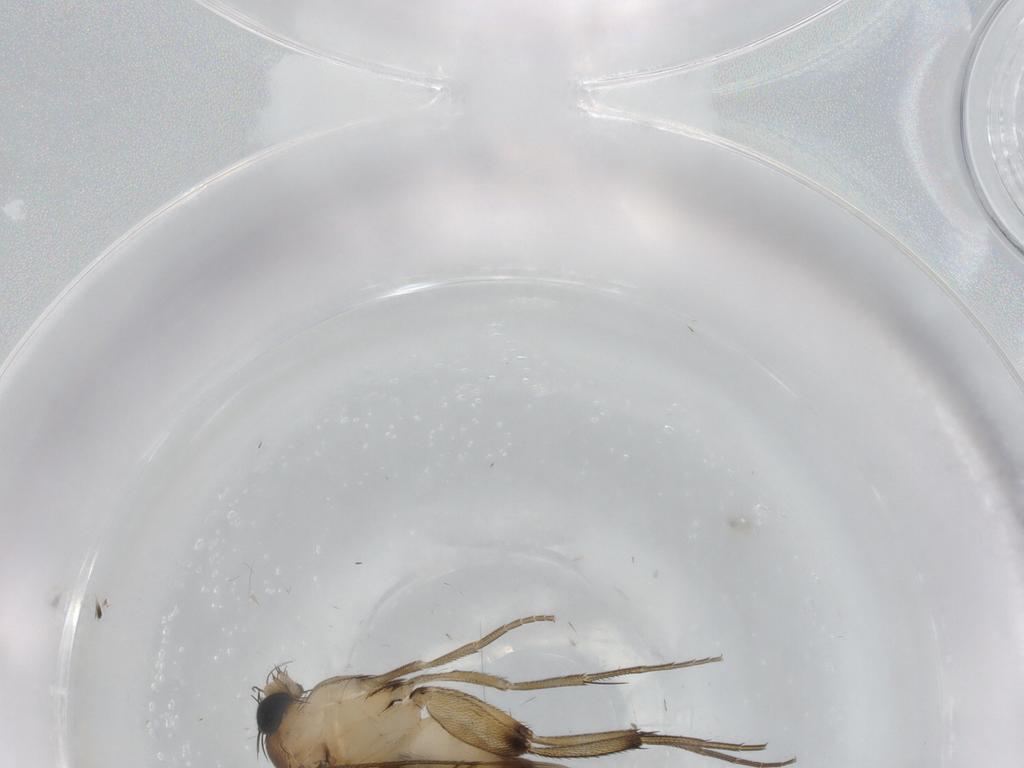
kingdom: Animalia
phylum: Arthropoda
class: Insecta
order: Diptera
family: Phoridae
